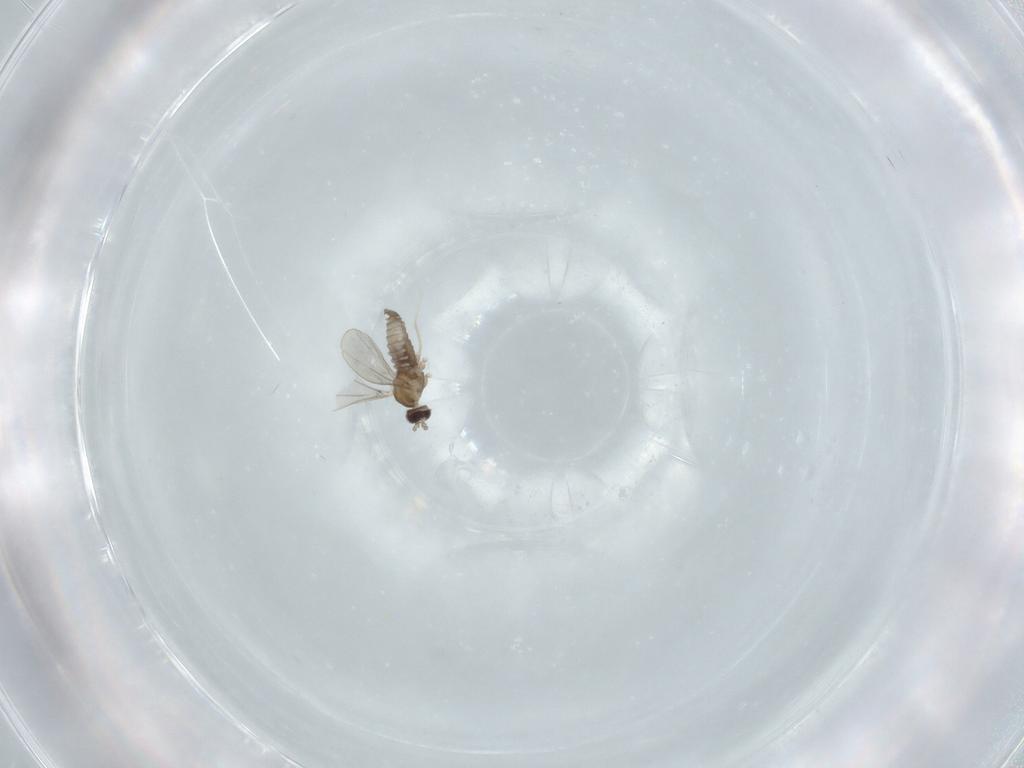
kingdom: Animalia
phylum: Arthropoda
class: Insecta
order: Diptera
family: Cecidomyiidae
